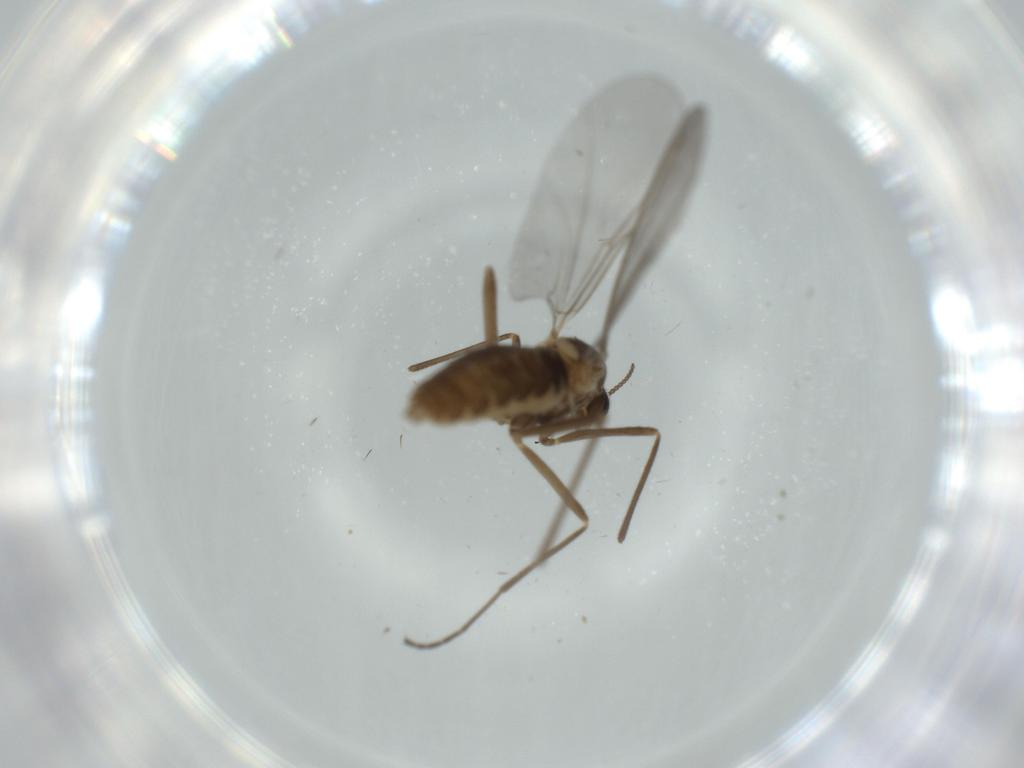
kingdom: Animalia
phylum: Arthropoda
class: Insecta
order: Diptera
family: Cecidomyiidae
